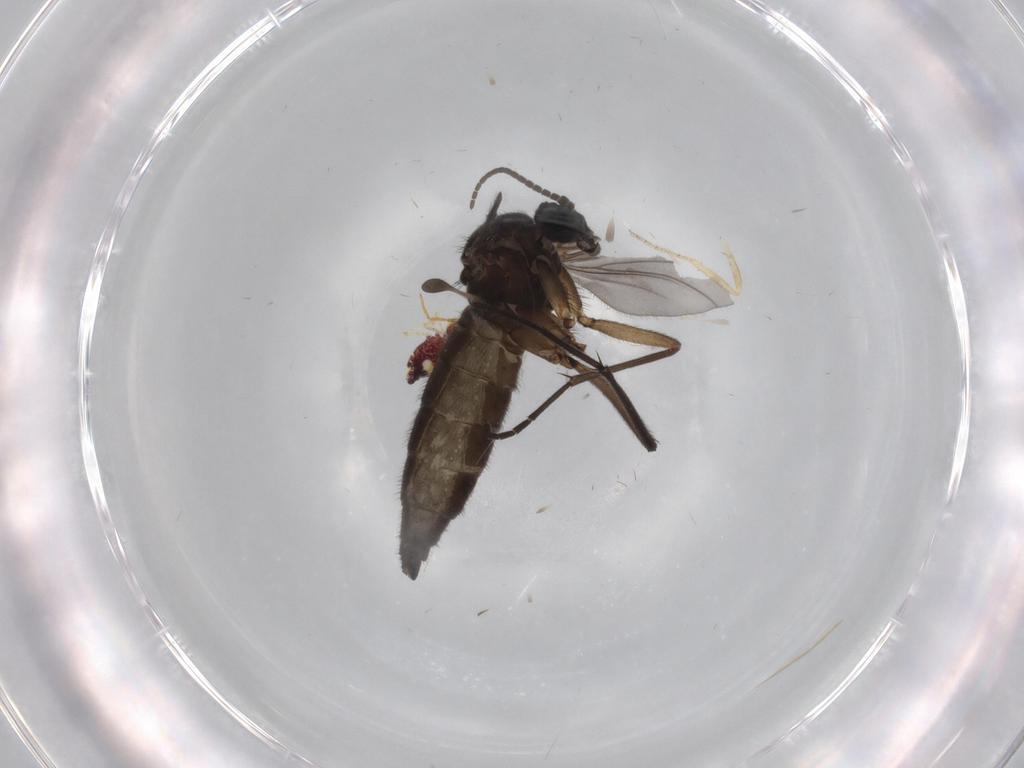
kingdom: Animalia
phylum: Arthropoda
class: Insecta
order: Diptera
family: Sciaridae
